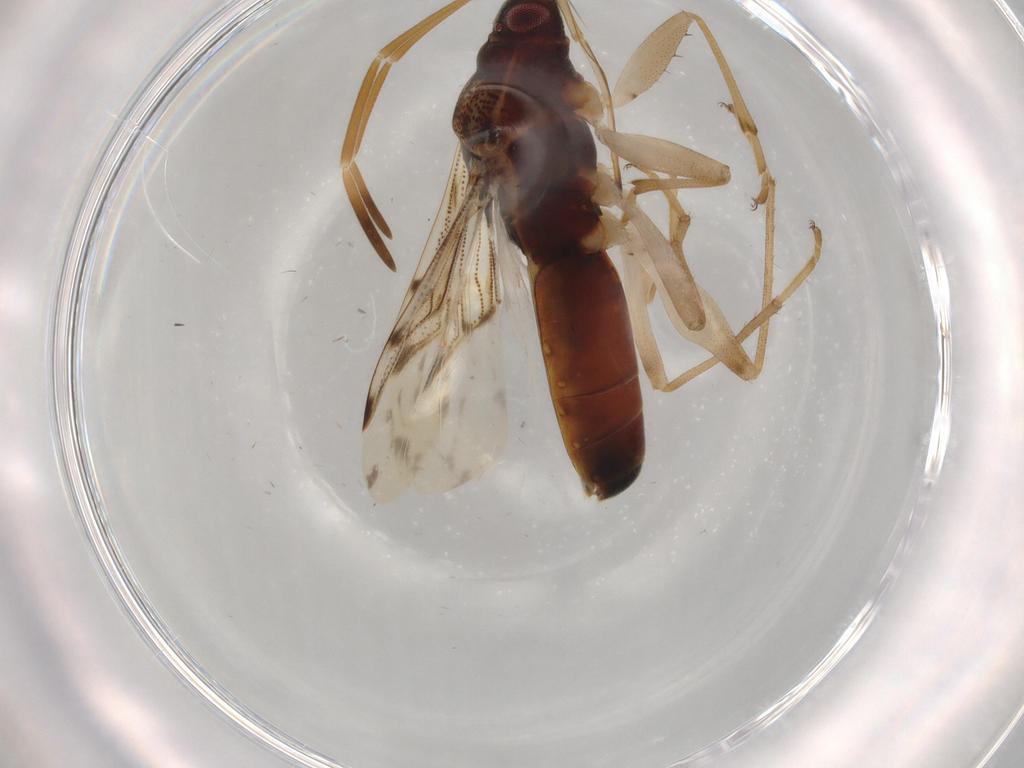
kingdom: Animalia
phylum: Arthropoda
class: Insecta
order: Hemiptera
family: Rhyparochromidae
